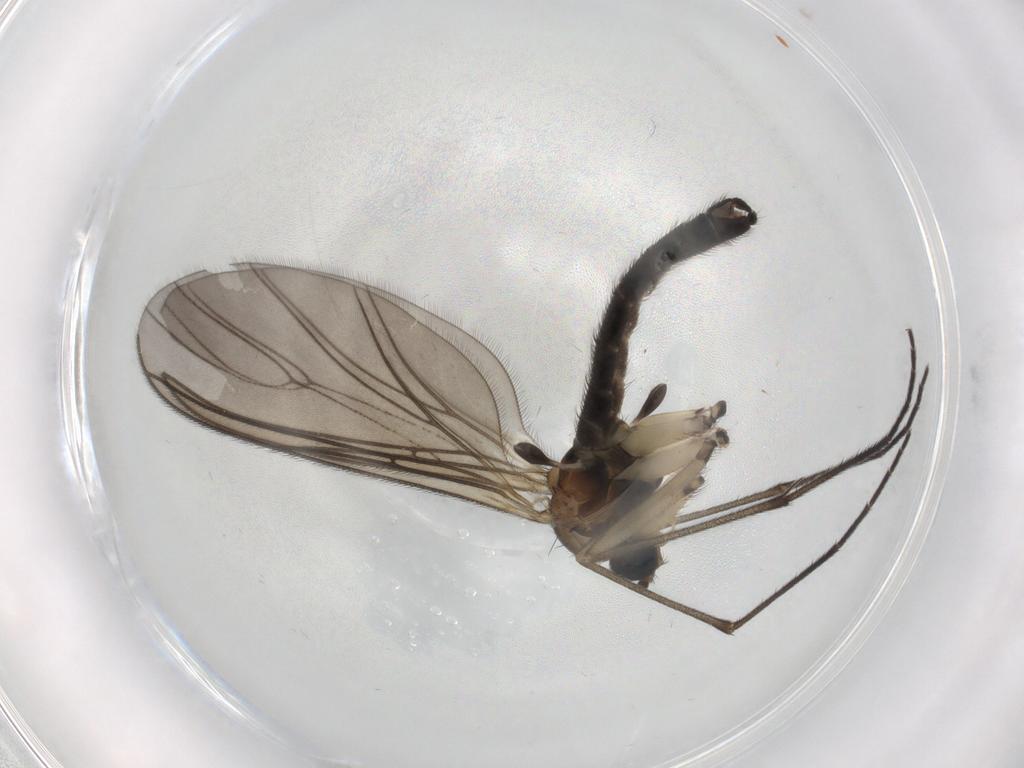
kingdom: Animalia
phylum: Arthropoda
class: Insecta
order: Diptera
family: Sciaridae
